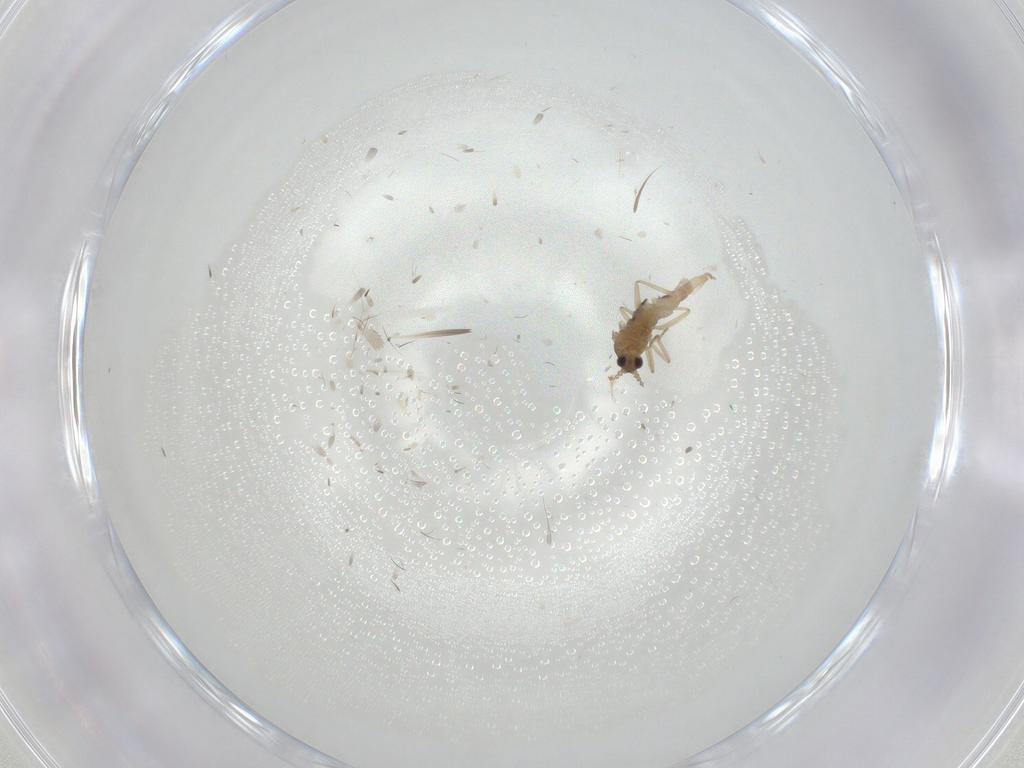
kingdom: Animalia
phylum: Arthropoda
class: Insecta
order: Diptera
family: Cecidomyiidae
